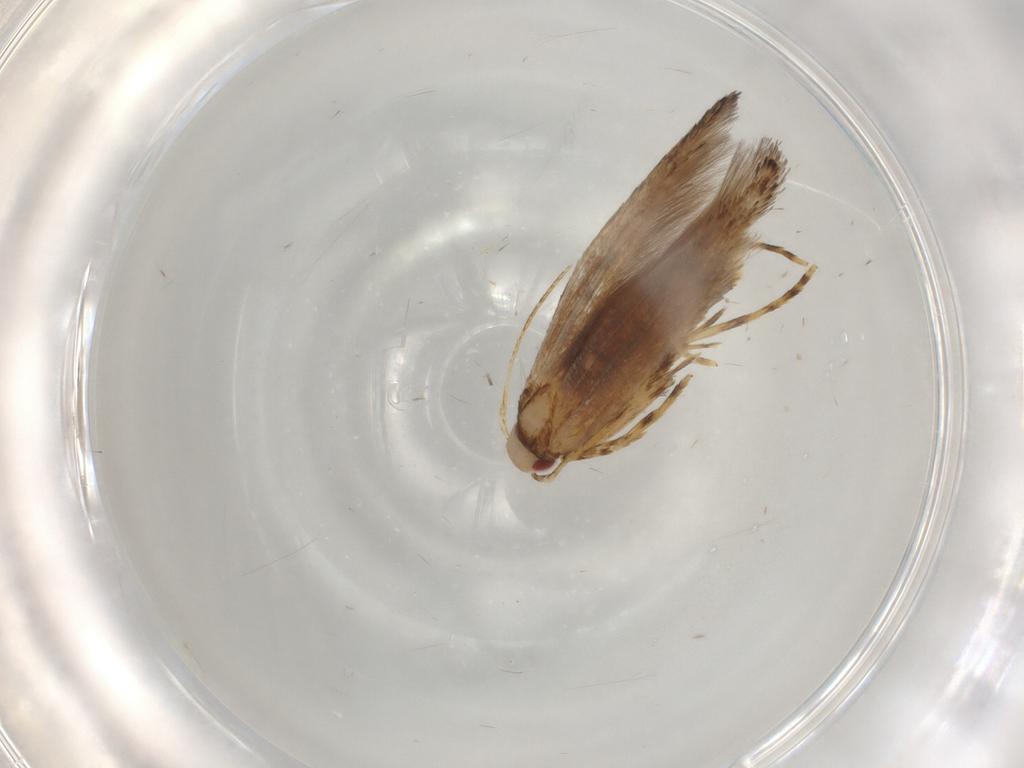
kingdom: Animalia
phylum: Arthropoda
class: Insecta
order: Lepidoptera
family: Cosmopterigidae
